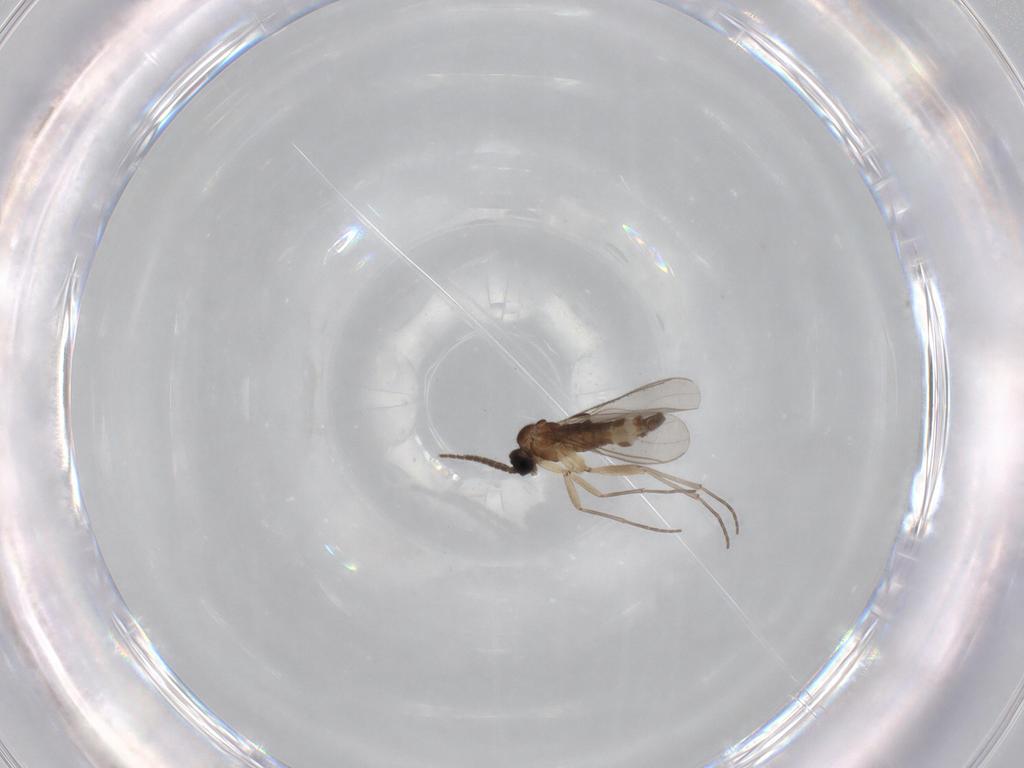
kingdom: Animalia
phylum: Arthropoda
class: Insecta
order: Diptera
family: Sciaridae
